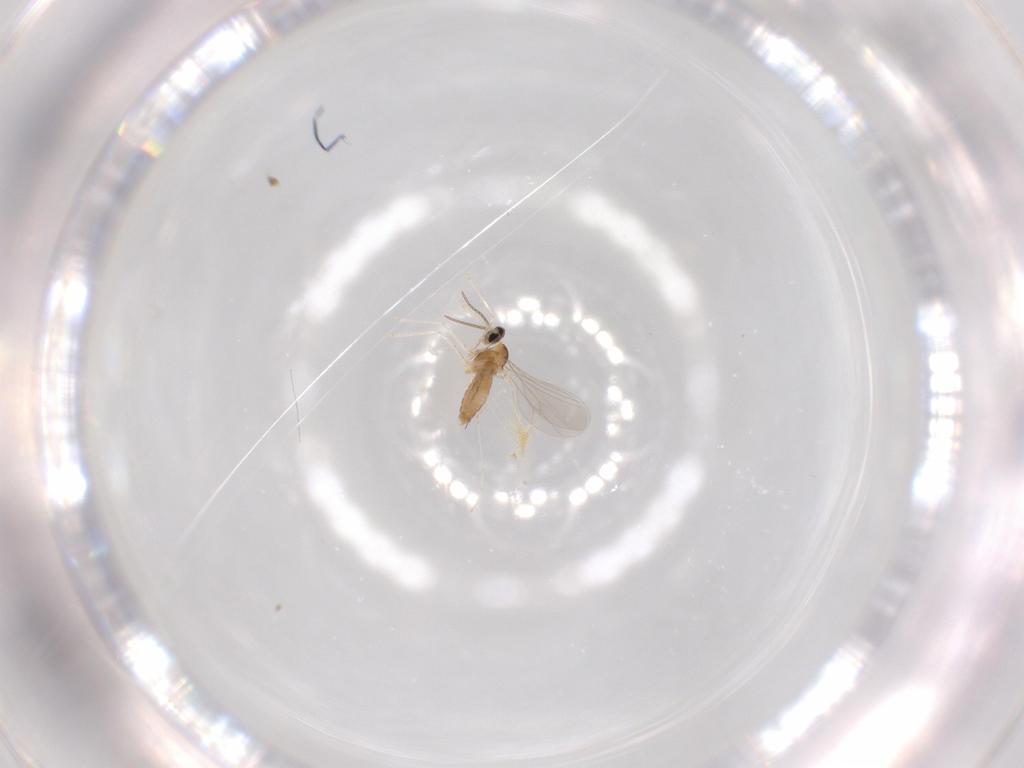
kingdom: Animalia
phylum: Arthropoda
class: Insecta
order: Diptera
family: Cecidomyiidae
